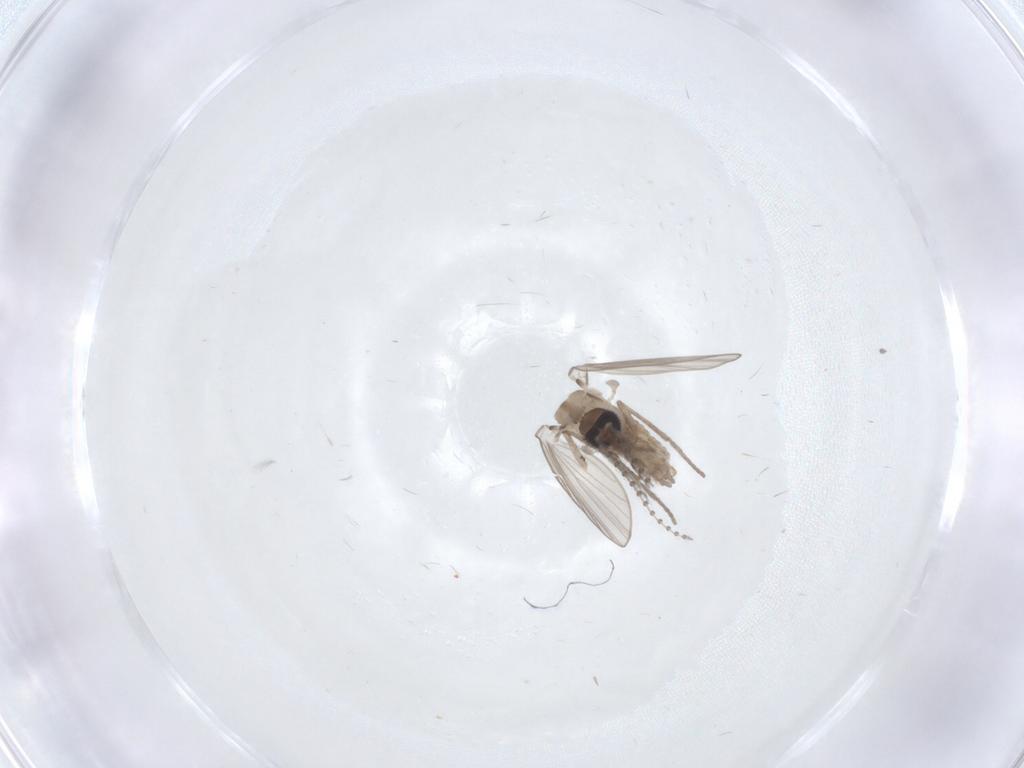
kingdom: Animalia
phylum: Arthropoda
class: Insecta
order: Diptera
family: Psychodidae
